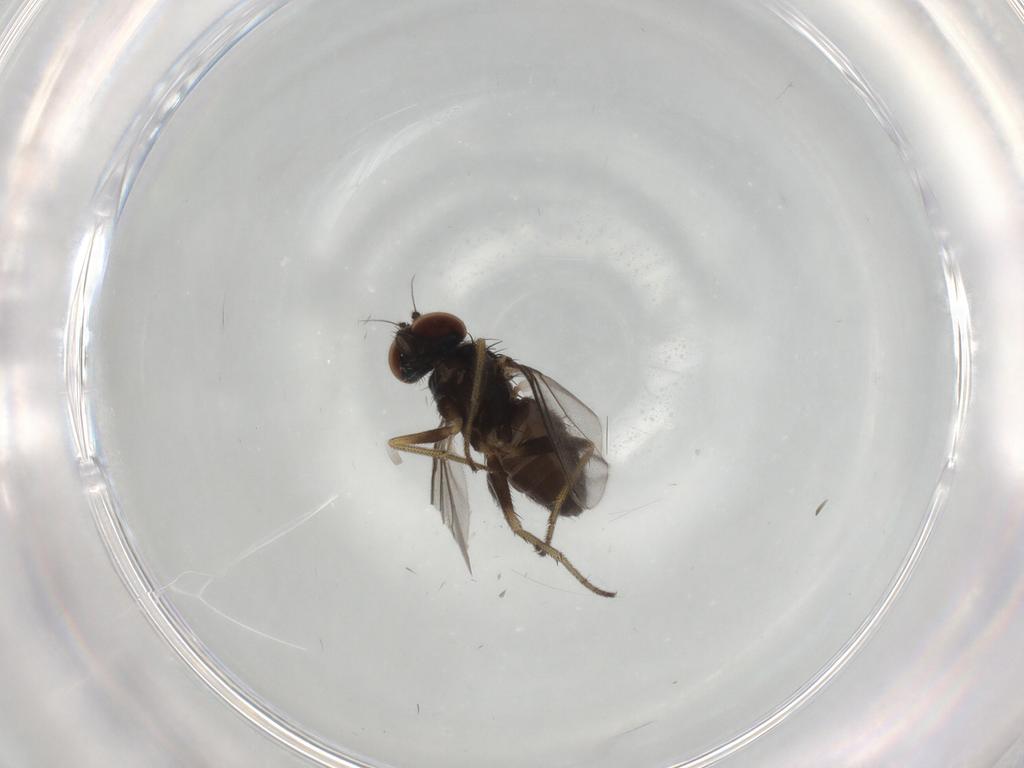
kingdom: Animalia
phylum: Arthropoda
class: Insecta
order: Diptera
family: Dolichopodidae
